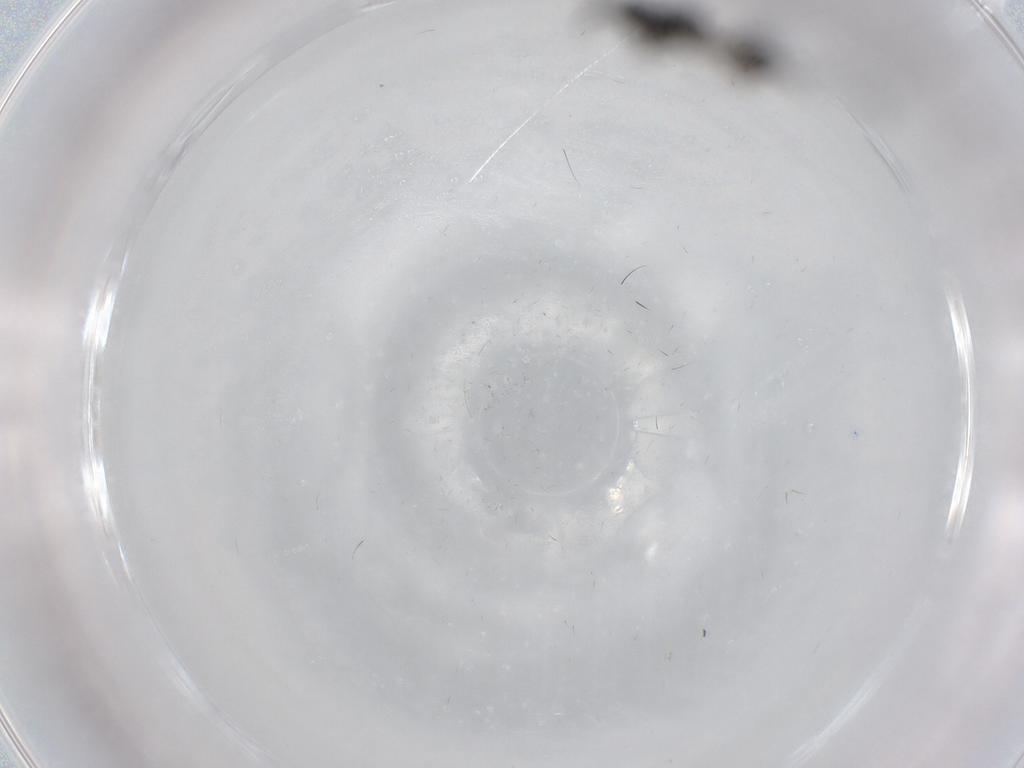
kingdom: Animalia
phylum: Arthropoda
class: Insecta
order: Hymenoptera
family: Diapriidae
